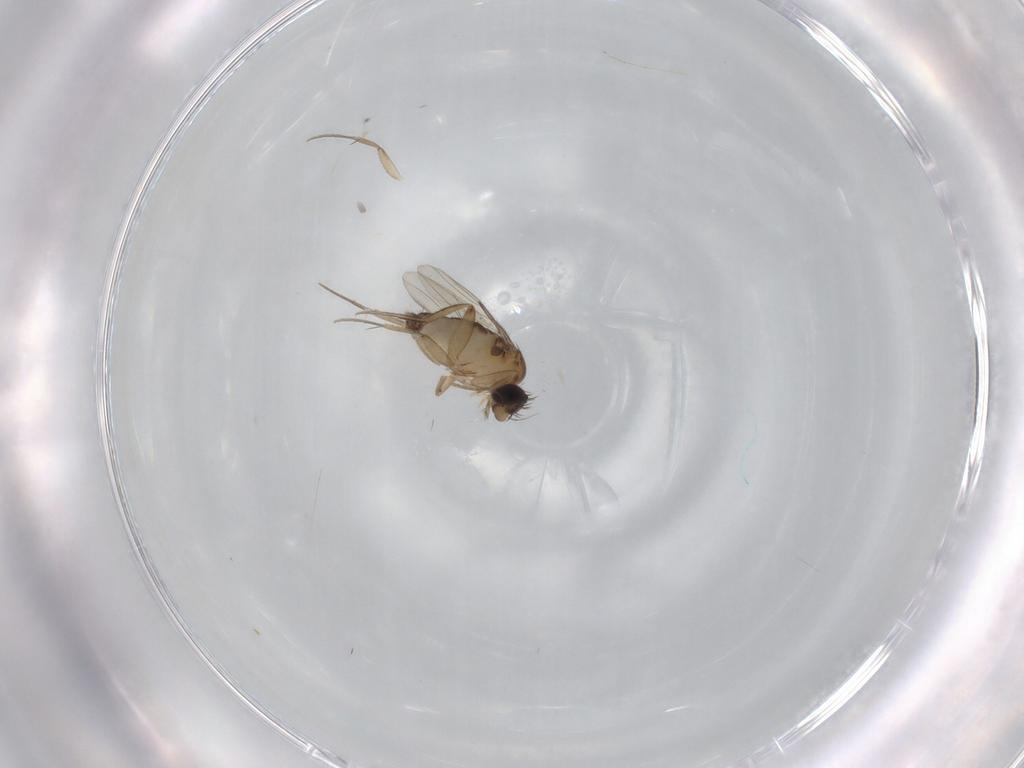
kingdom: Animalia
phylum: Arthropoda
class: Insecta
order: Diptera
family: Phoridae
